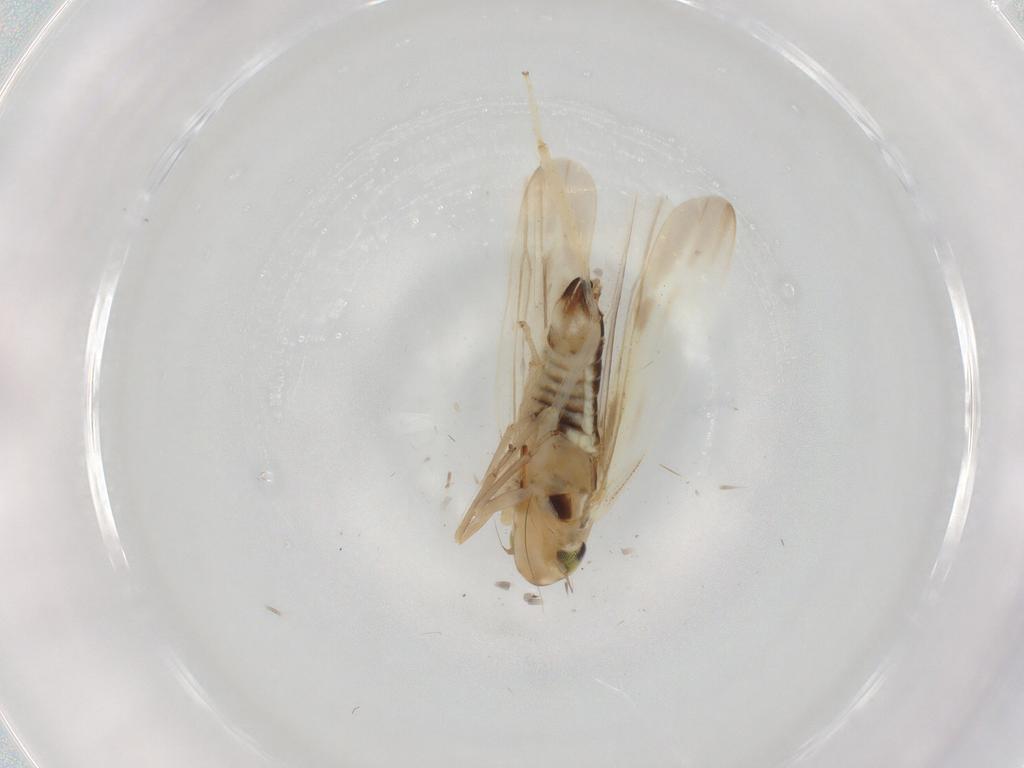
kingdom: Animalia
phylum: Arthropoda
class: Insecta
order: Hemiptera
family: Cicadellidae
